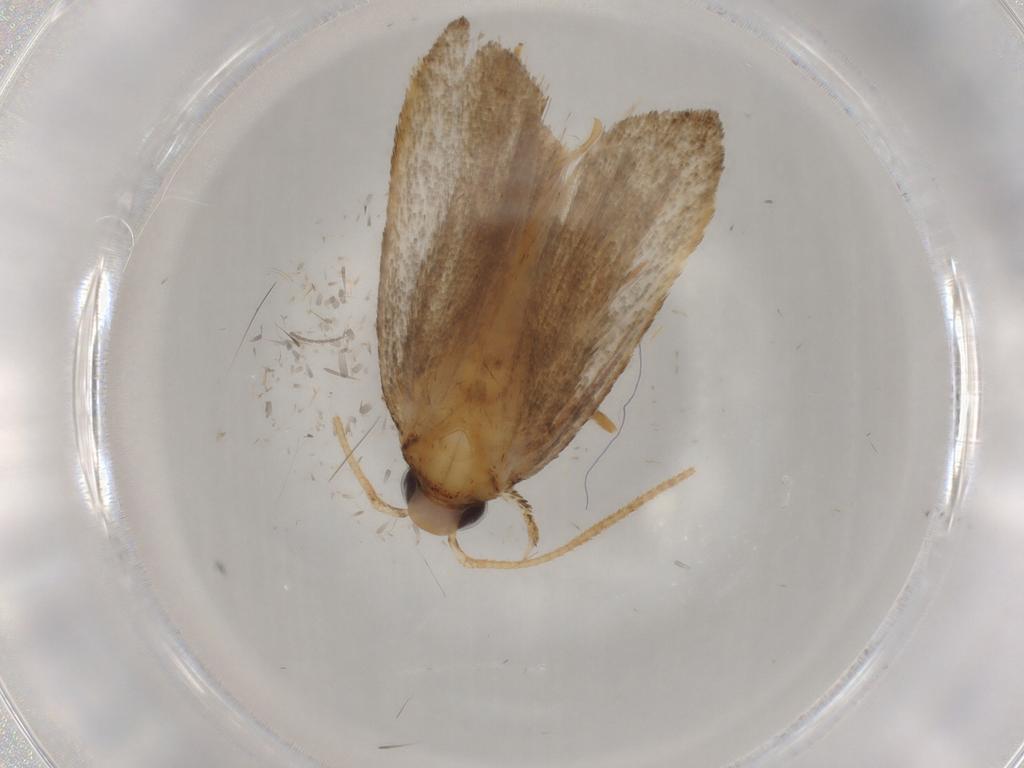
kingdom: Animalia
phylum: Arthropoda
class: Insecta
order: Lepidoptera
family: Autostichidae
